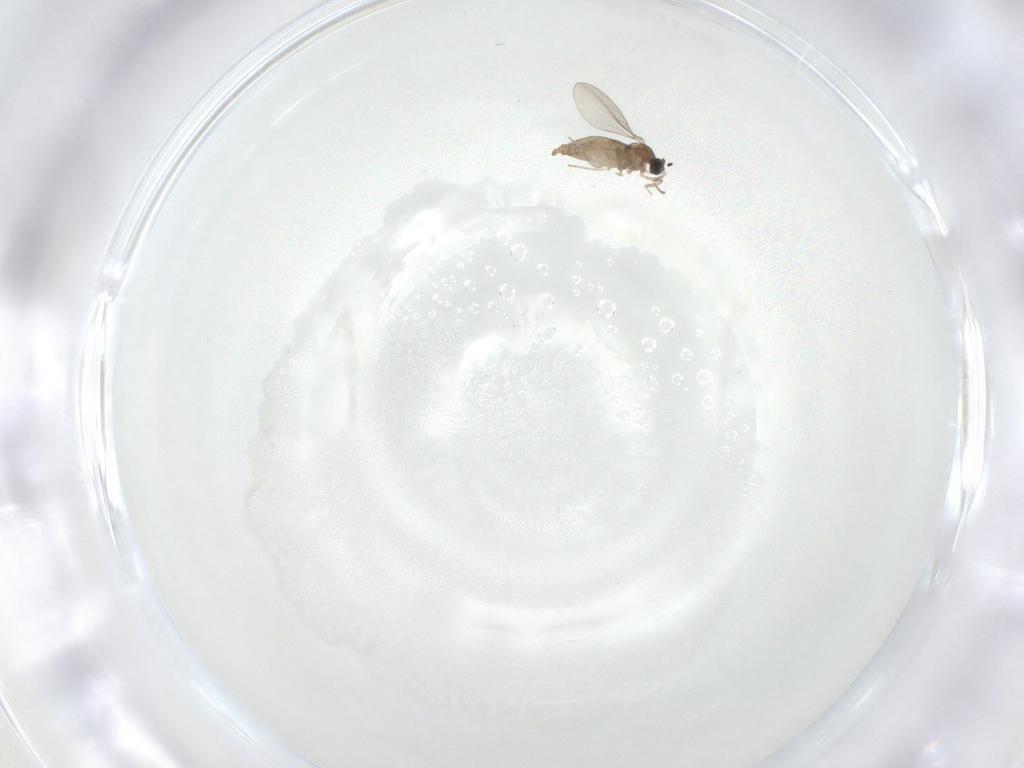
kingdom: Animalia
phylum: Arthropoda
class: Insecta
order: Diptera
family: Cecidomyiidae
